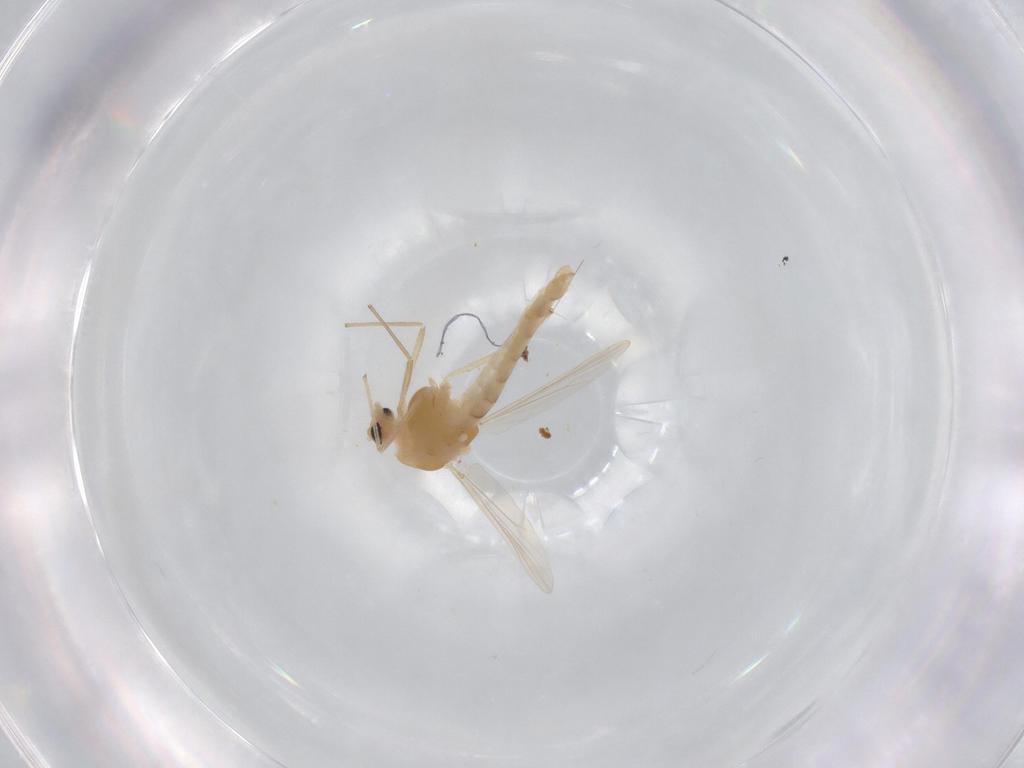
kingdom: Animalia
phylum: Arthropoda
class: Insecta
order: Diptera
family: Chironomidae
